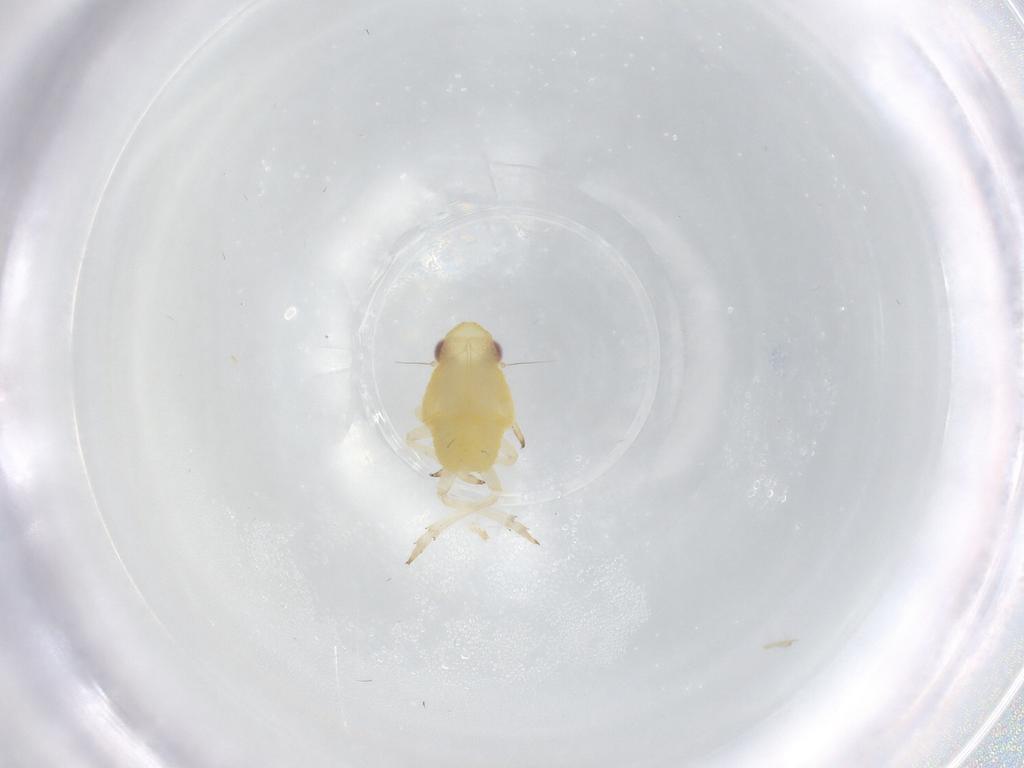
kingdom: Animalia
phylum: Arthropoda
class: Insecta
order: Hemiptera
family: Caliscelidae
